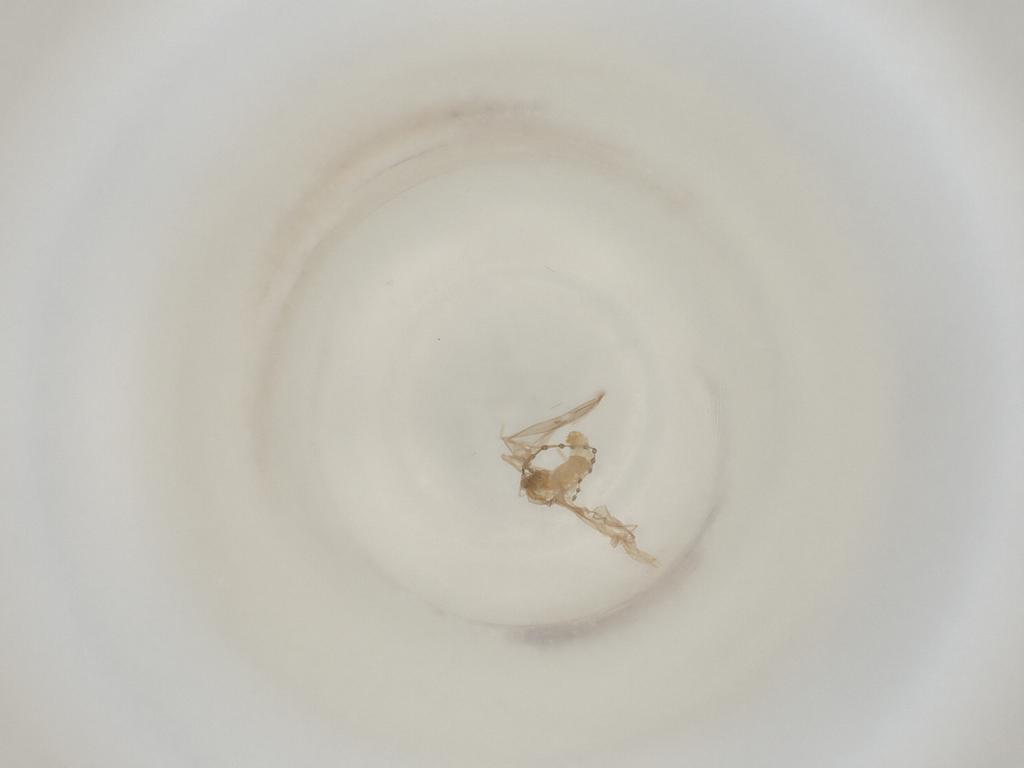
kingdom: Animalia
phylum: Arthropoda
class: Insecta
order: Diptera
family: Cecidomyiidae
